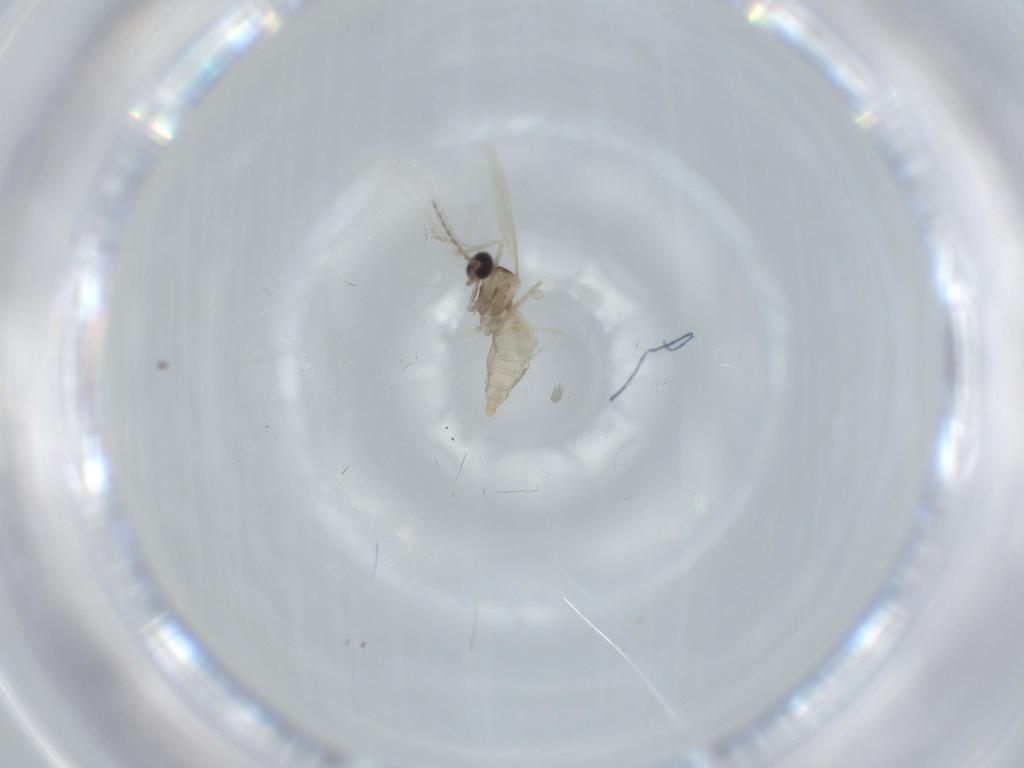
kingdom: Animalia
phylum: Arthropoda
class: Insecta
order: Diptera
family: Cecidomyiidae
